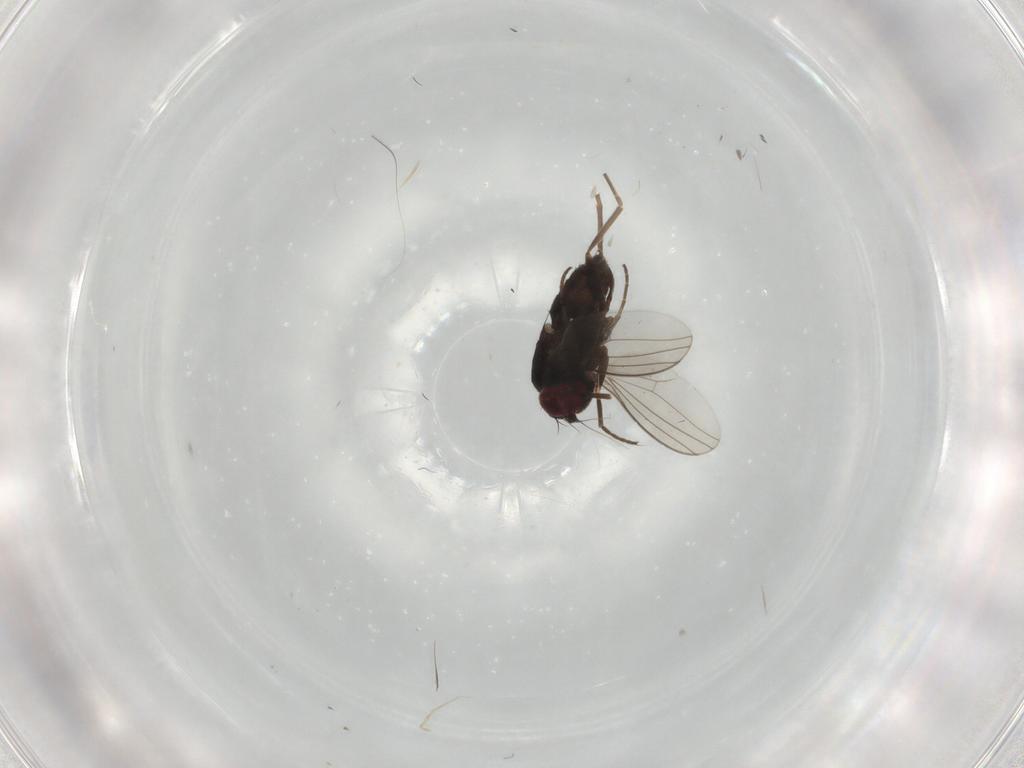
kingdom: Animalia
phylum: Arthropoda
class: Insecta
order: Diptera
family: Dolichopodidae
